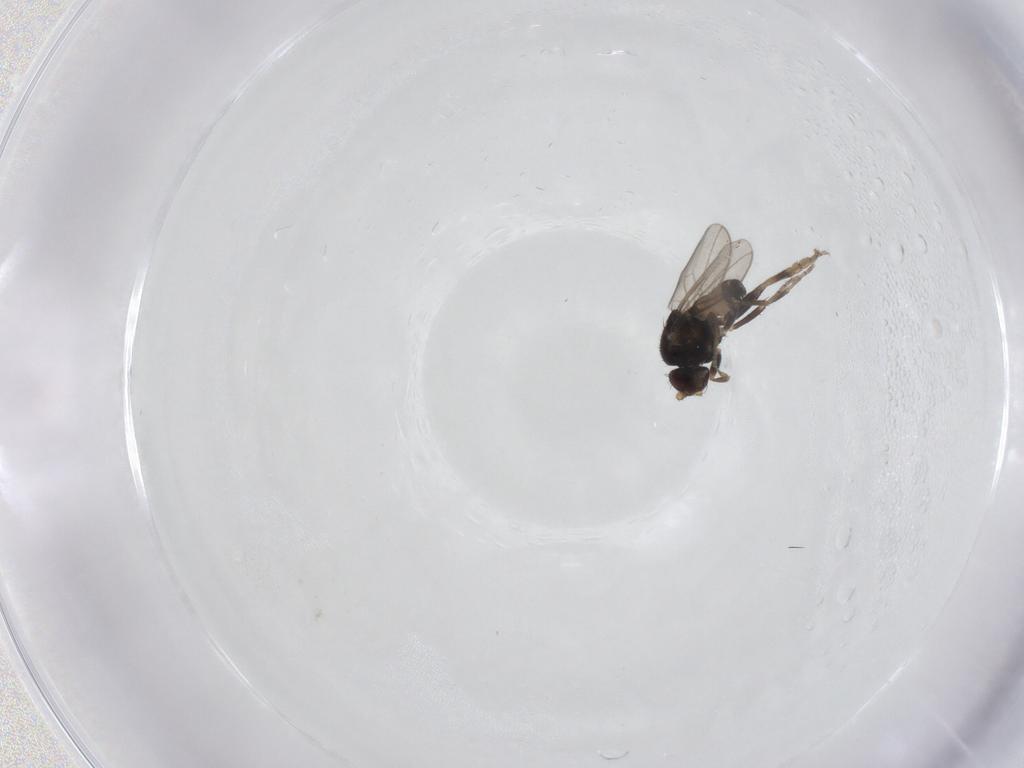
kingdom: Animalia
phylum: Arthropoda
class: Insecta
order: Diptera
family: Sphaeroceridae
